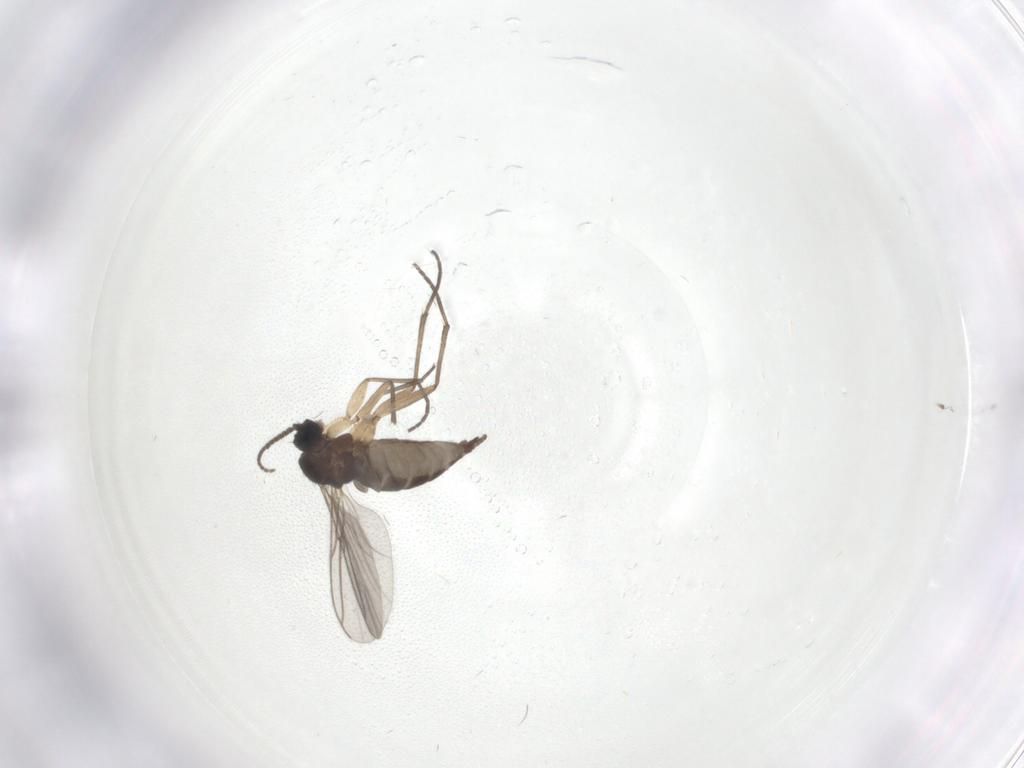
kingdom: Animalia
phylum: Arthropoda
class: Insecta
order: Diptera
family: Sciaridae
